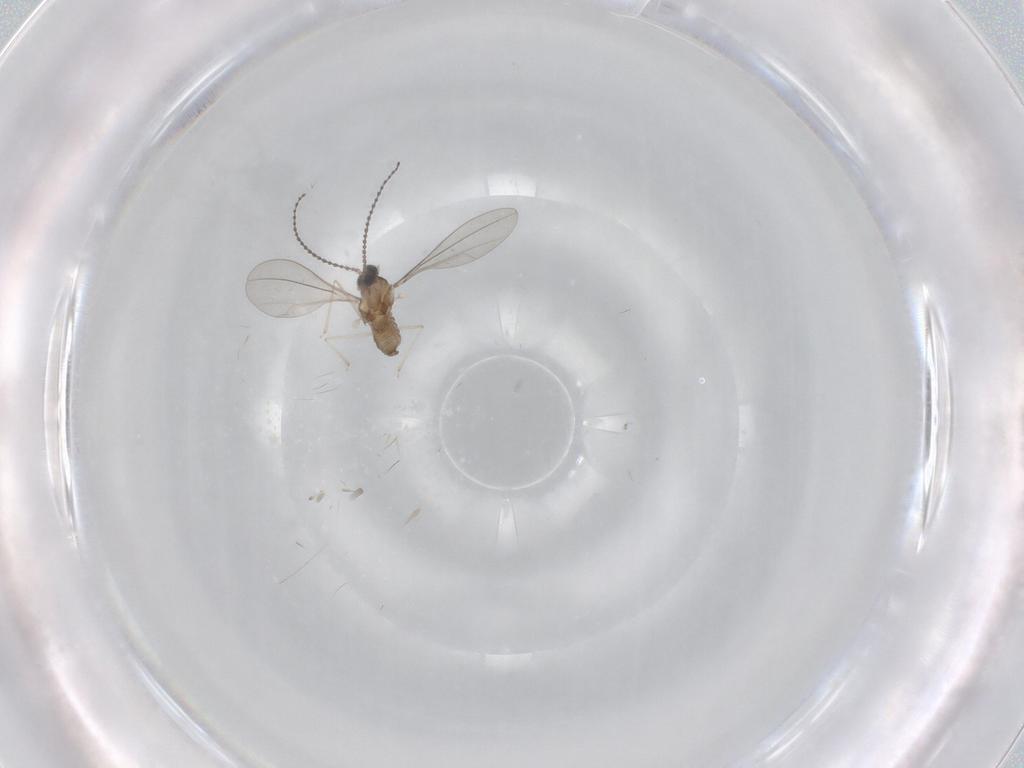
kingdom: Animalia
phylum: Arthropoda
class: Insecta
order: Diptera
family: Cecidomyiidae
